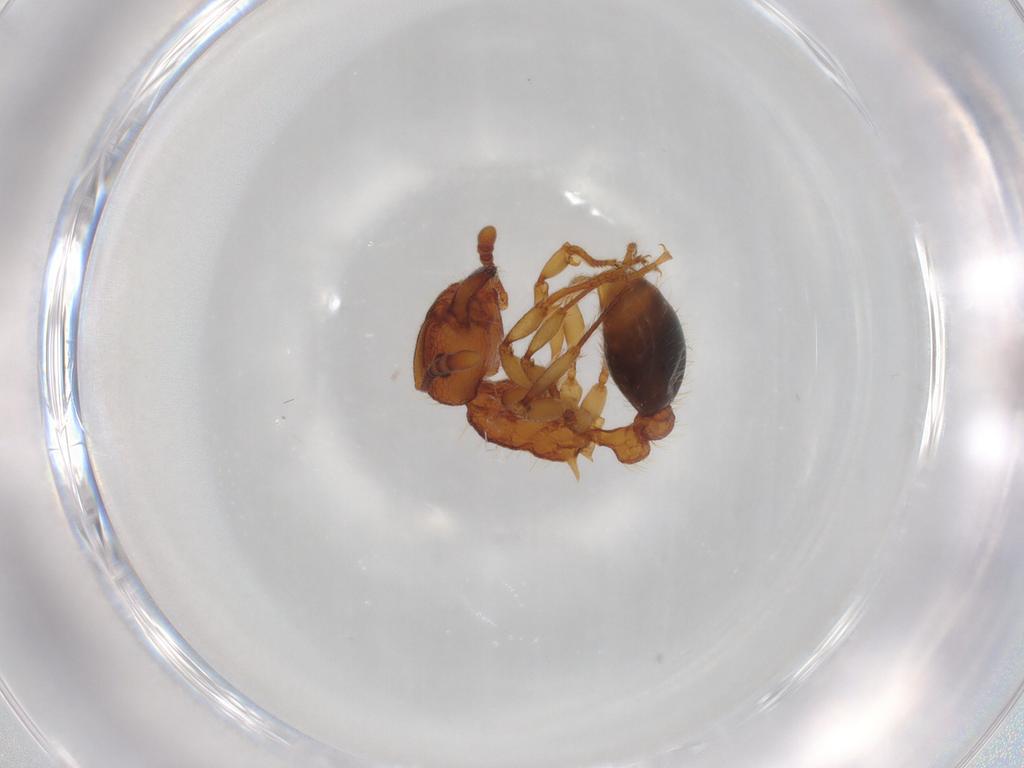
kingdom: Animalia
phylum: Arthropoda
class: Insecta
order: Hymenoptera
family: Formicidae
